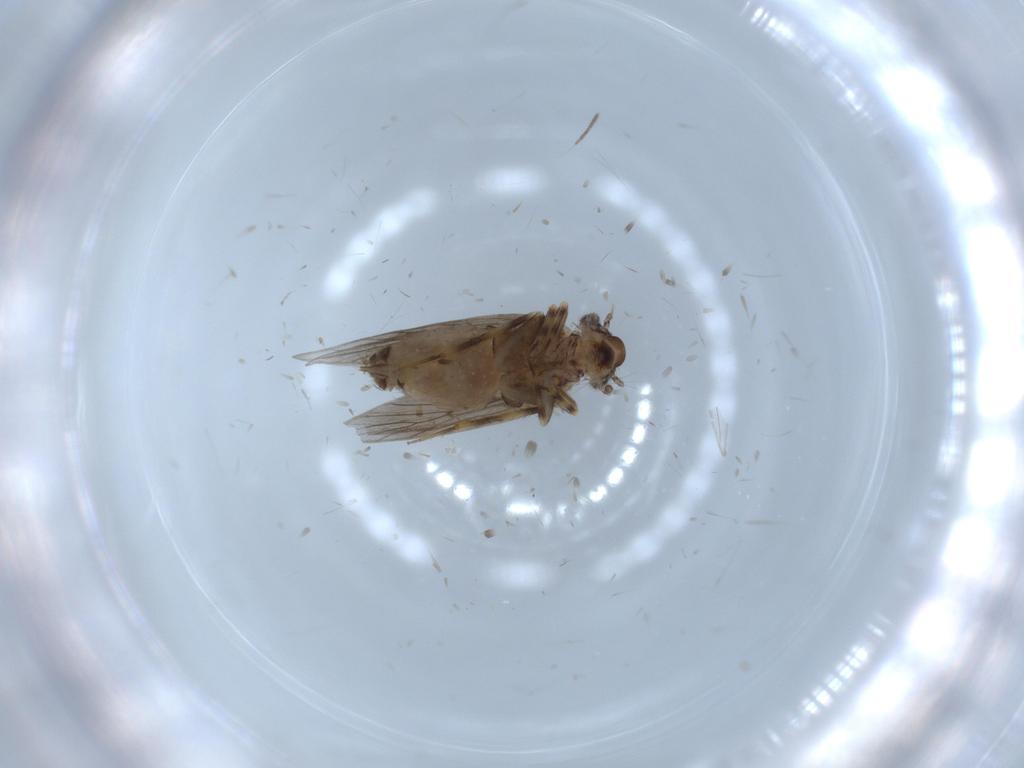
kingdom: Animalia
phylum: Arthropoda
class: Insecta
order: Psocodea
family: Lepidopsocidae
